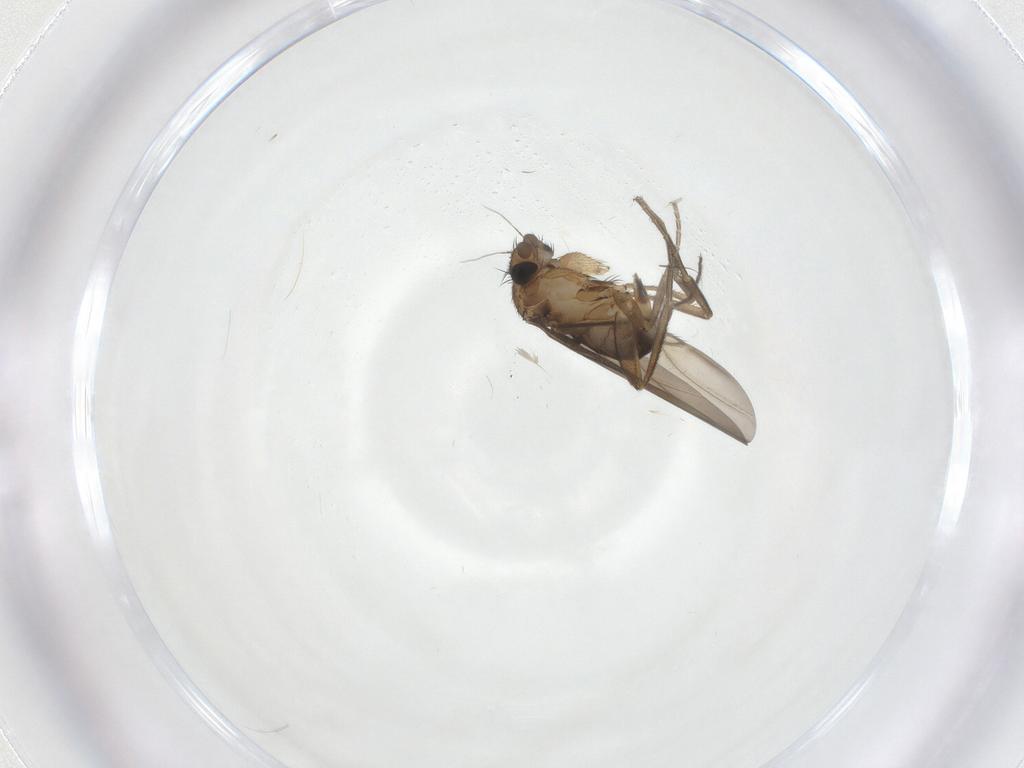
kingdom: Animalia
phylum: Arthropoda
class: Insecta
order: Diptera
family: Phoridae
